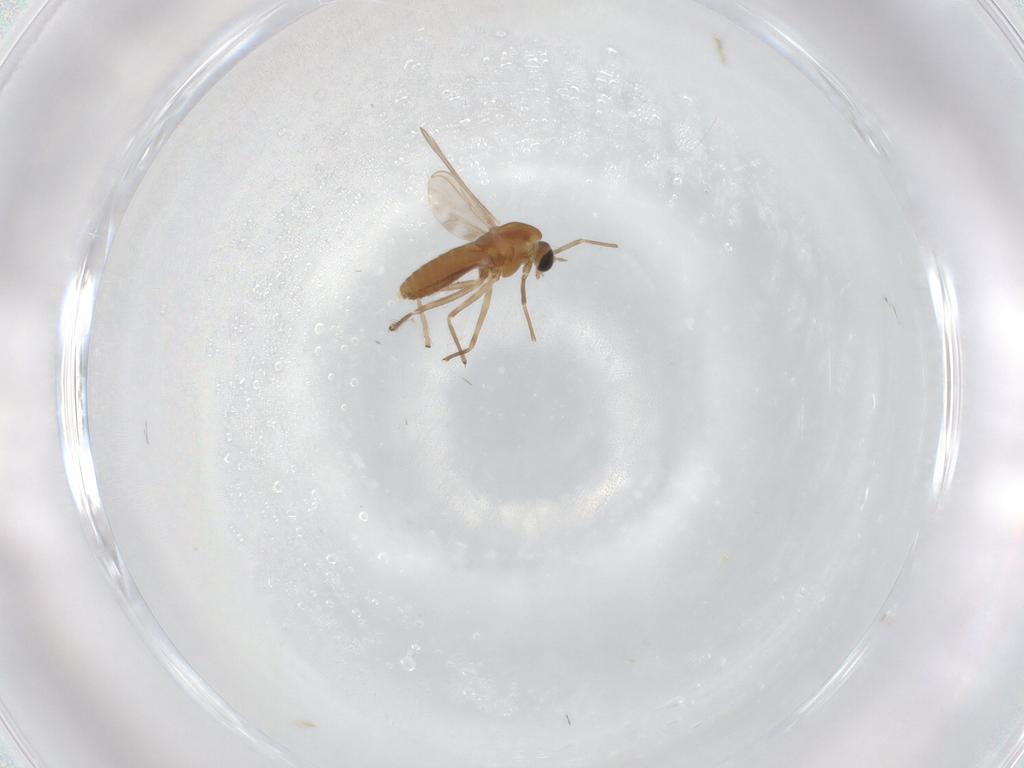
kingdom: Animalia
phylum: Arthropoda
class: Insecta
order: Diptera
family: Chironomidae
